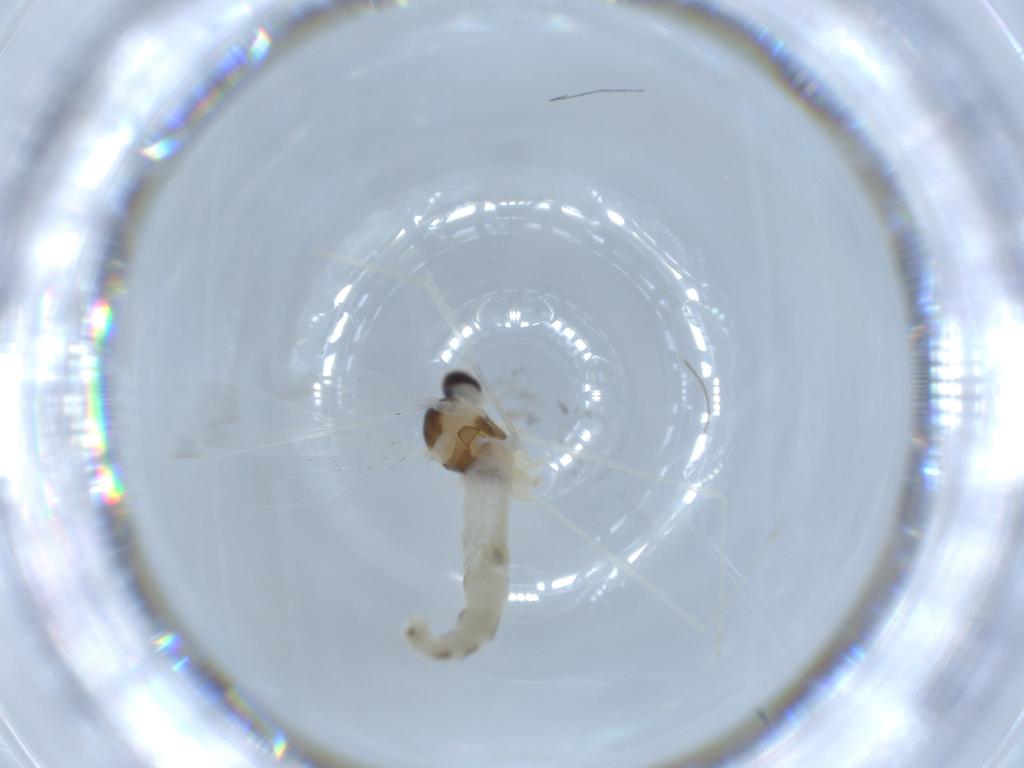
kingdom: Animalia
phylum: Arthropoda
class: Insecta
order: Diptera
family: Cecidomyiidae
